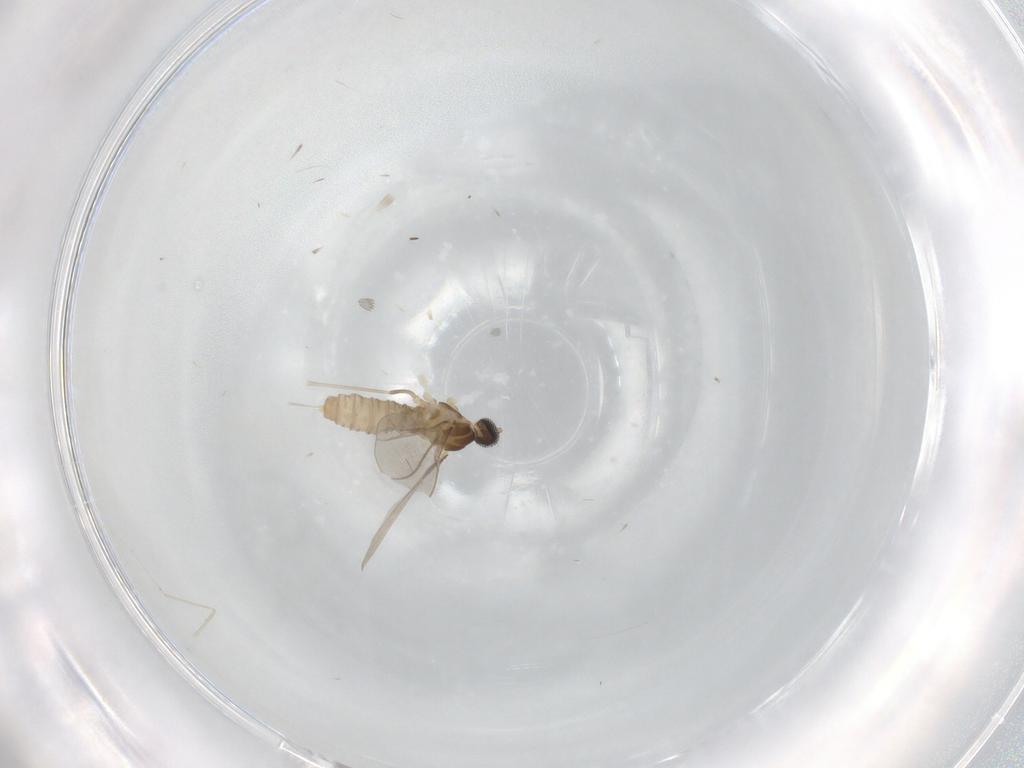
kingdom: Animalia
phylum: Arthropoda
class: Insecta
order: Diptera
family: Cecidomyiidae
